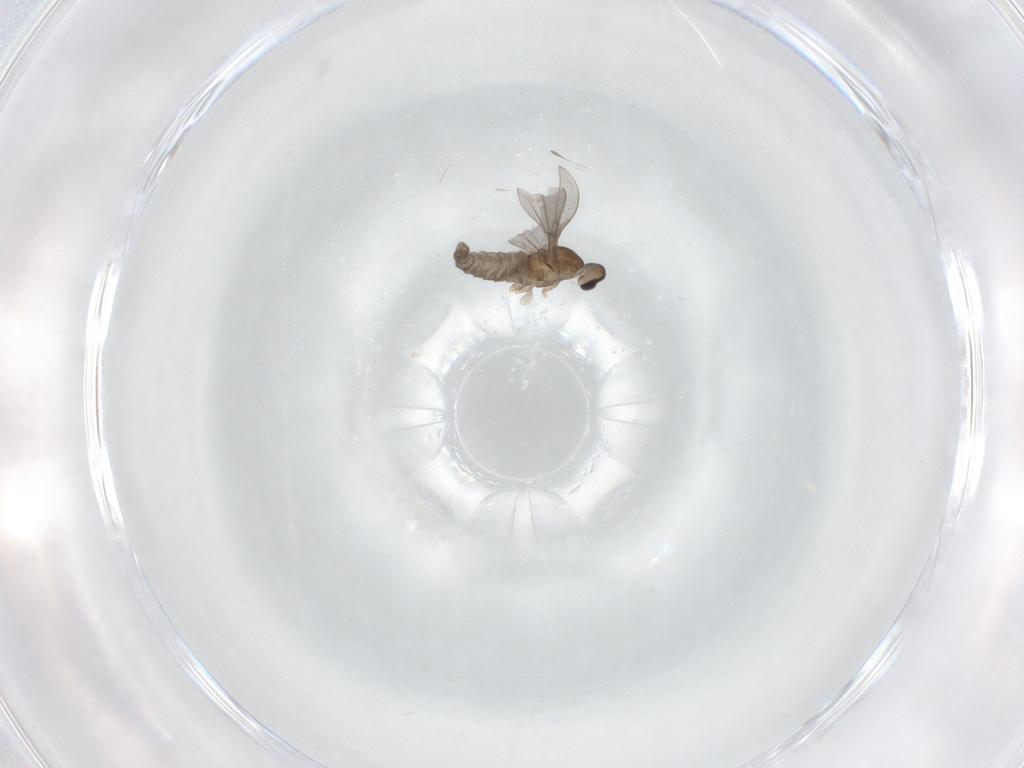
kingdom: Animalia
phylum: Arthropoda
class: Insecta
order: Diptera
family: Cecidomyiidae
